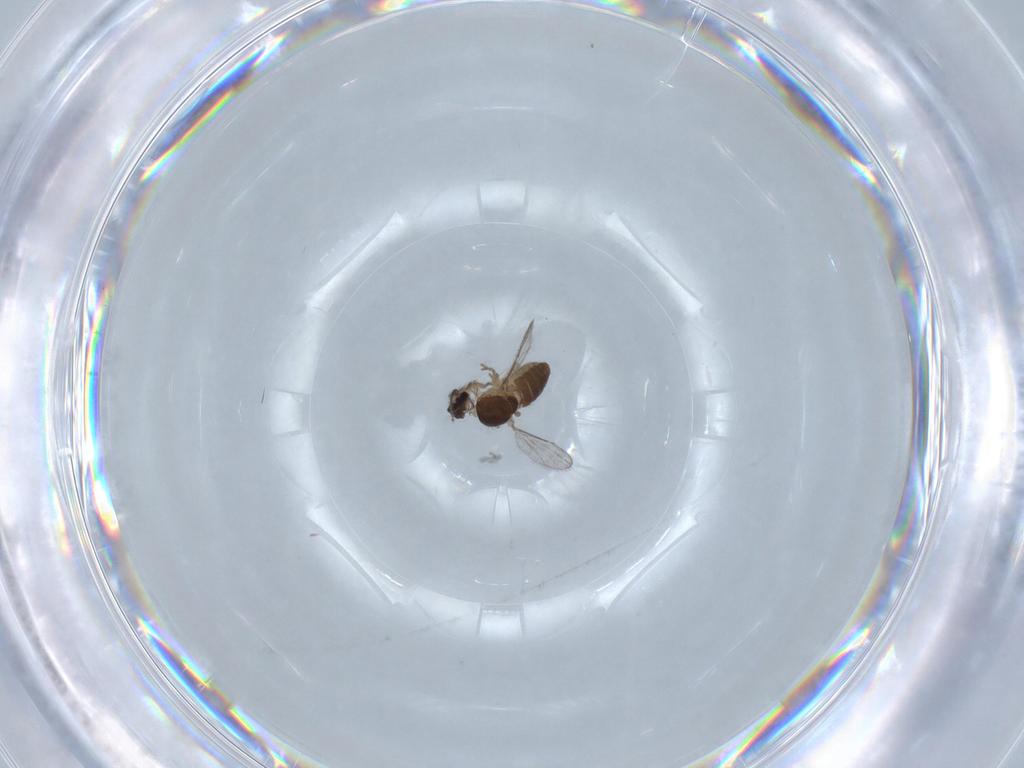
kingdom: Animalia
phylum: Arthropoda
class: Insecta
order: Diptera
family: Ceratopogonidae
